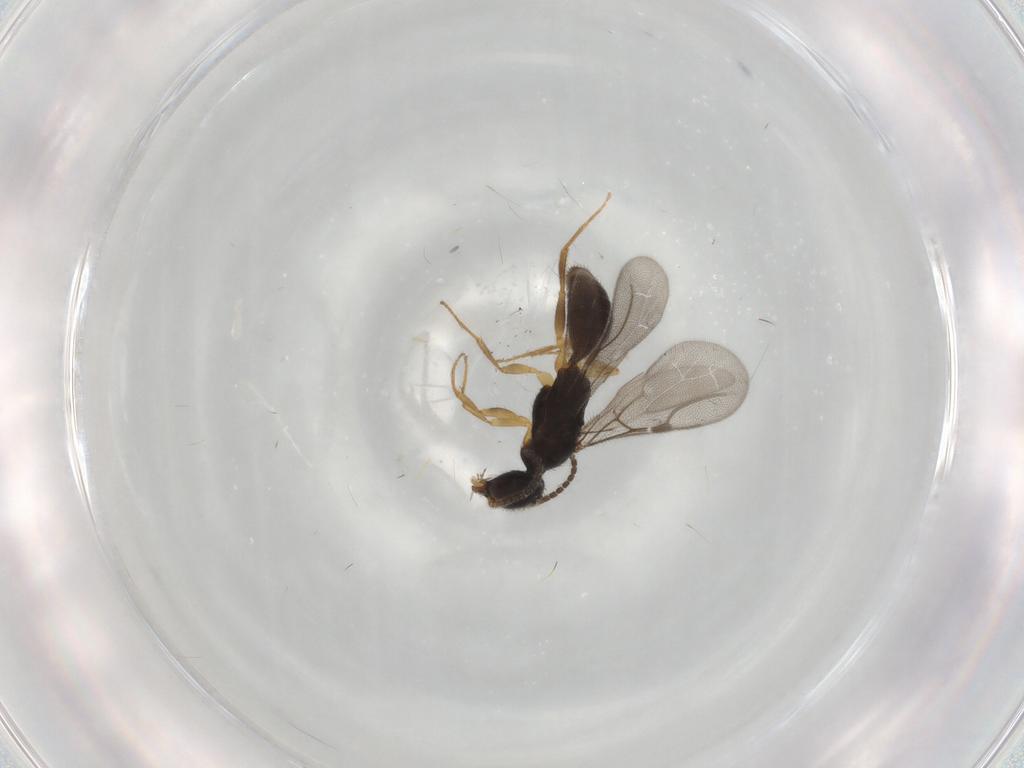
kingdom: Animalia
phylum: Arthropoda
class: Insecta
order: Hymenoptera
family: Bethylidae
